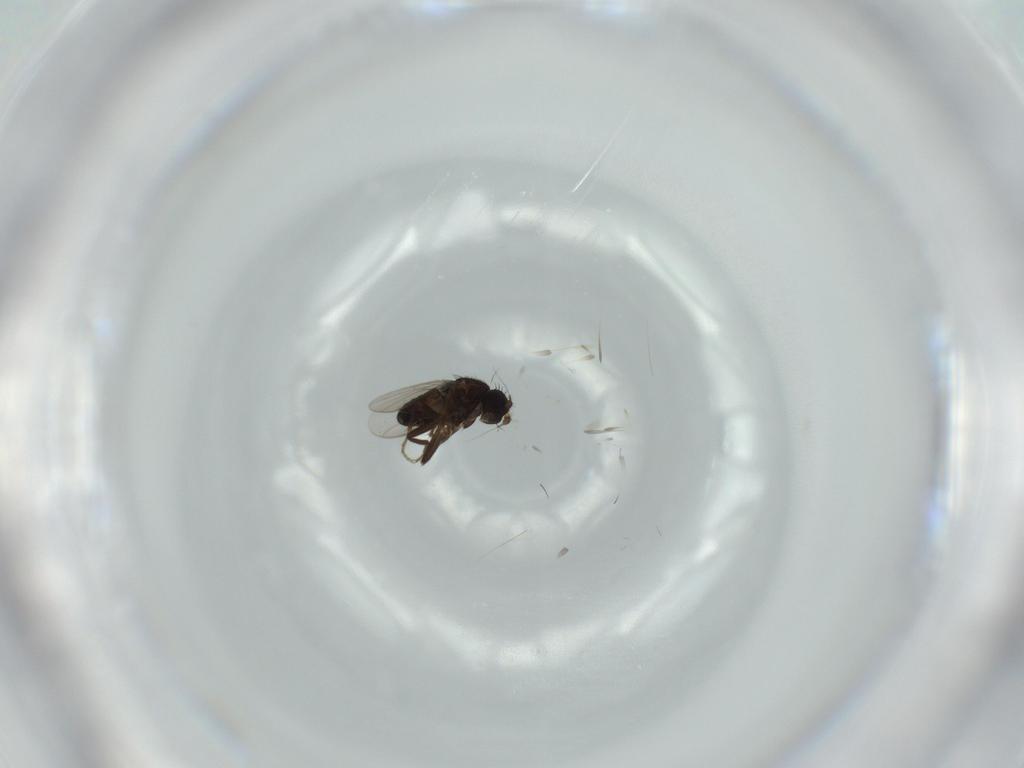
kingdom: Animalia
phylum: Arthropoda
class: Insecta
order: Diptera
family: Sphaeroceridae
